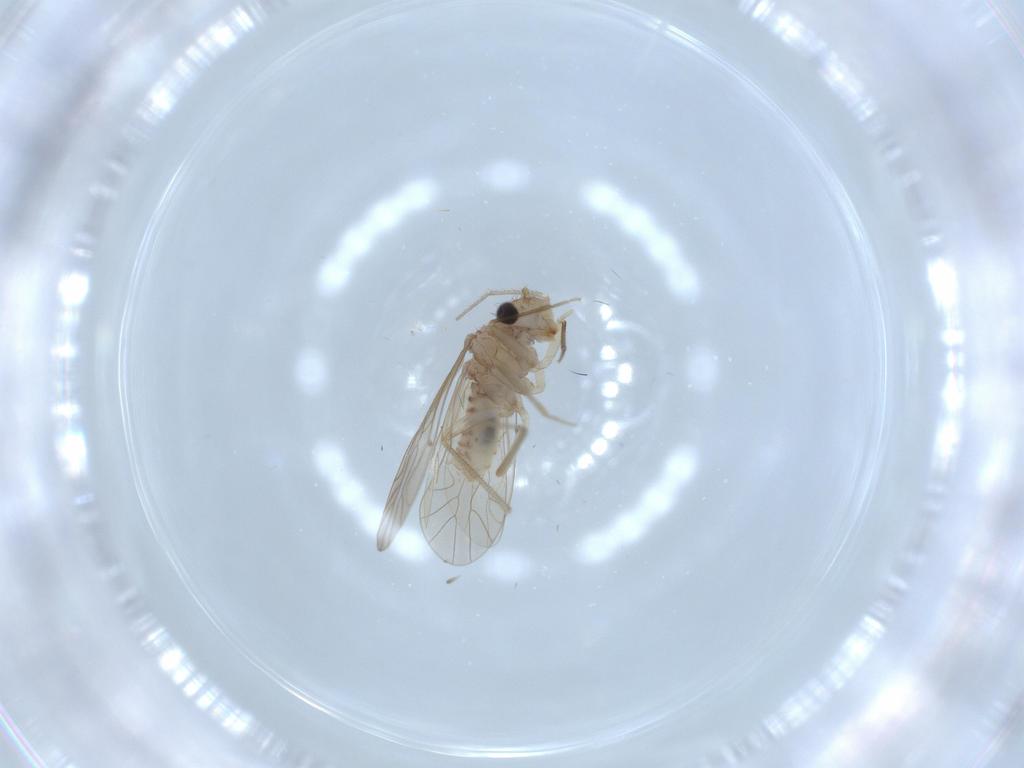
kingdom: Animalia
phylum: Arthropoda
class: Insecta
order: Psocodea
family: Caeciliusidae
